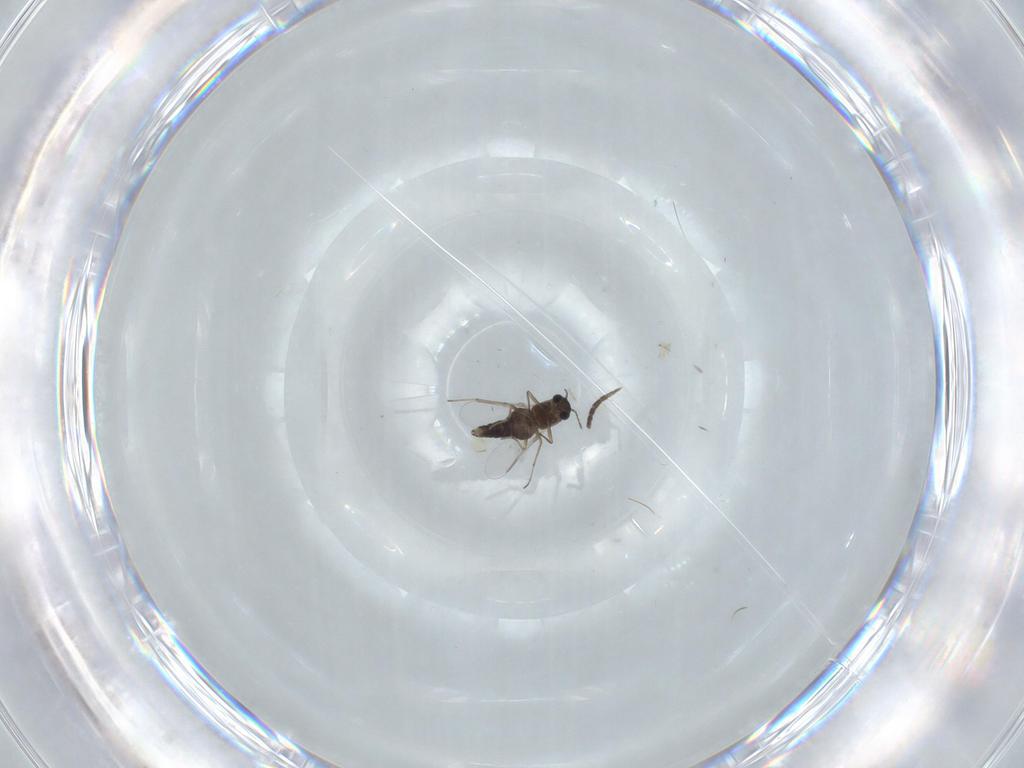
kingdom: Animalia
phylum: Arthropoda
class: Insecta
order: Diptera
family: Chironomidae
